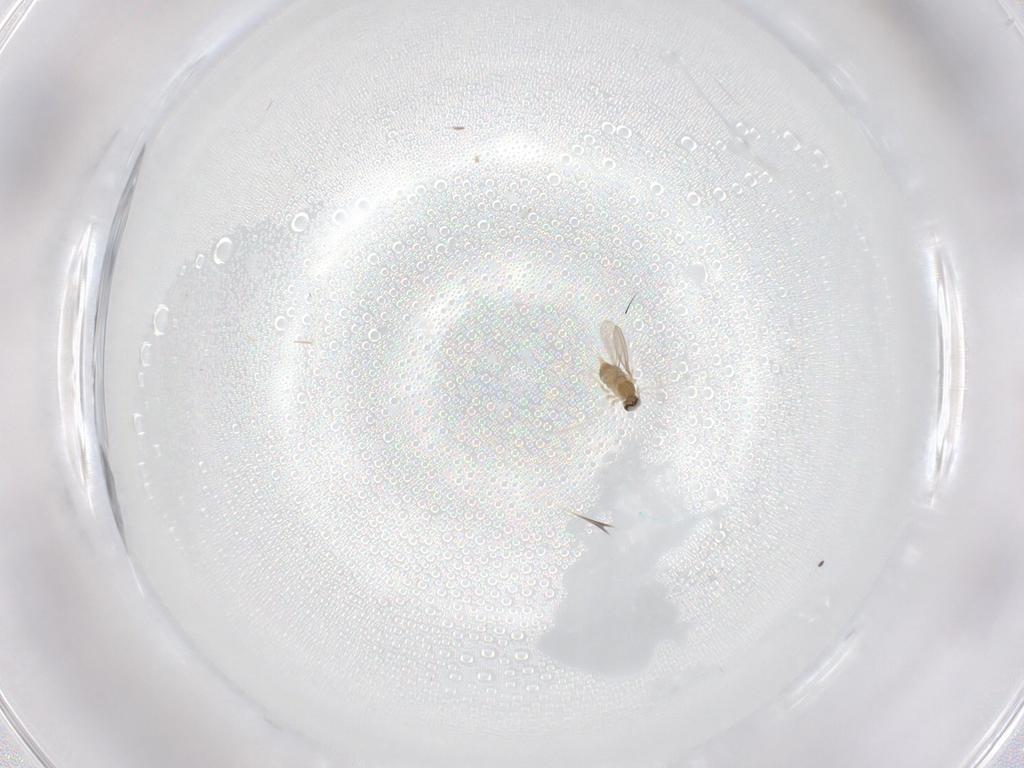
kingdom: Animalia
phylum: Arthropoda
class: Insecta
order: Diptera
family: Cecidomyiidae
